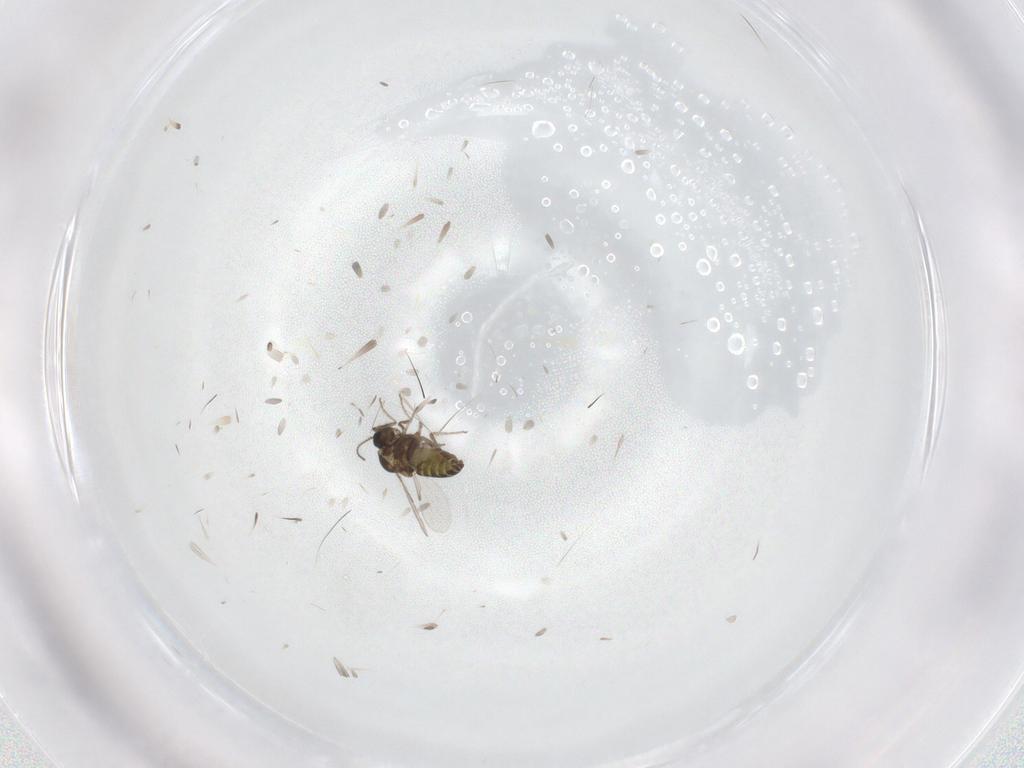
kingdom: Animalia
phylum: Arthropoda
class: Insecta
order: Diptera
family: Ceratopogonidae
